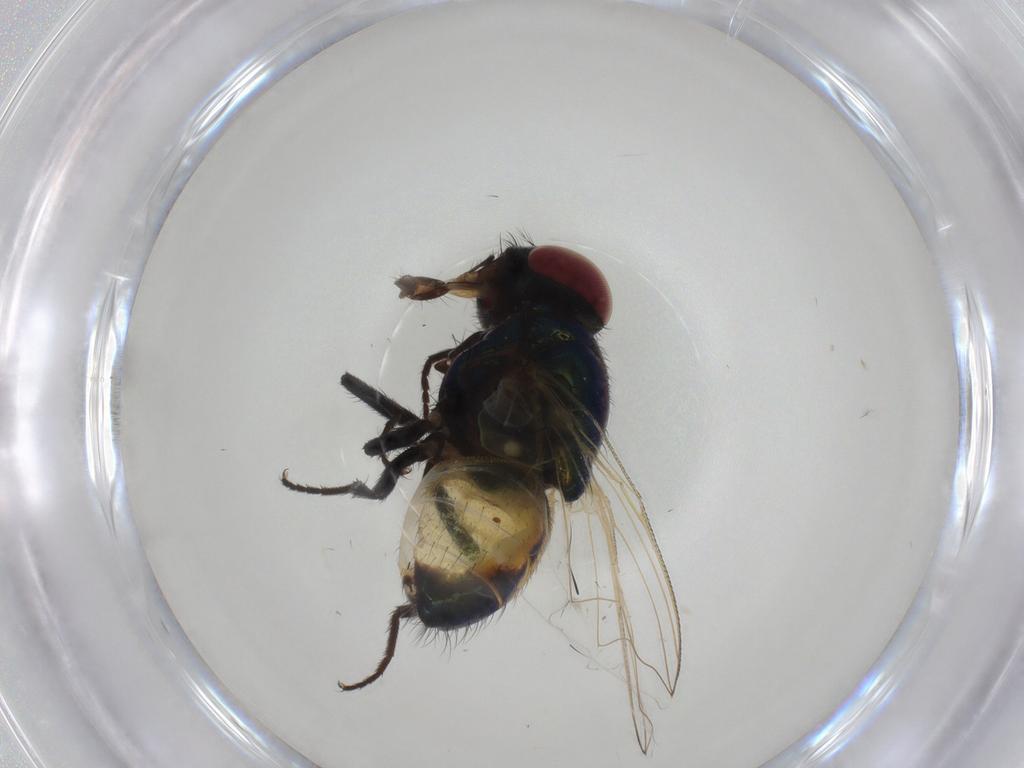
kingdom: Animalia
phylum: Arthropoda
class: Insecta
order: Diptera
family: Muscidae
